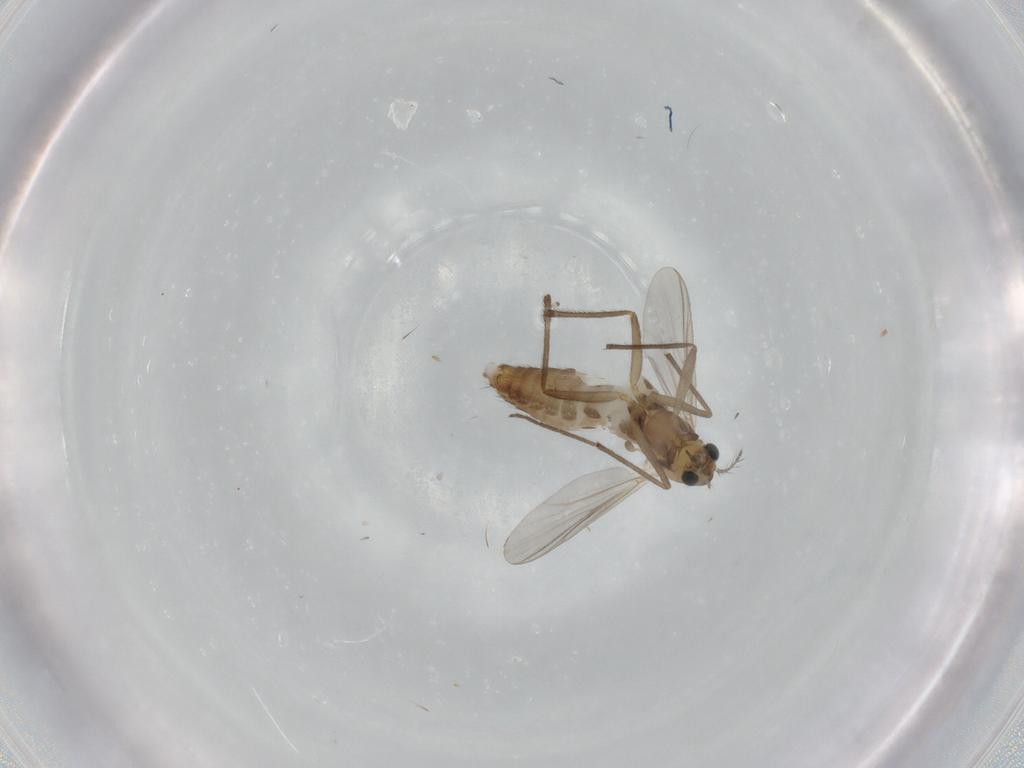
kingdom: Animalia
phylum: Arthropoda
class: Insecta
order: Diptera
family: Chironomidae
